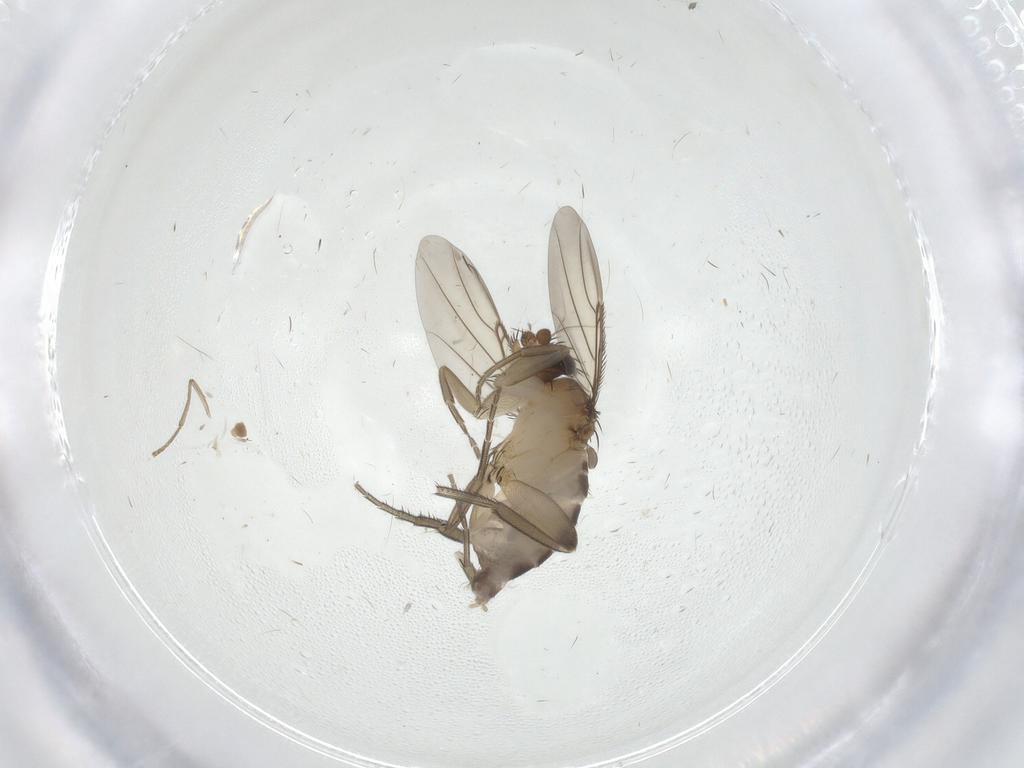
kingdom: Animalia
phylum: Arthropoda
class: Insecta
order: Diptera
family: Phoridae
